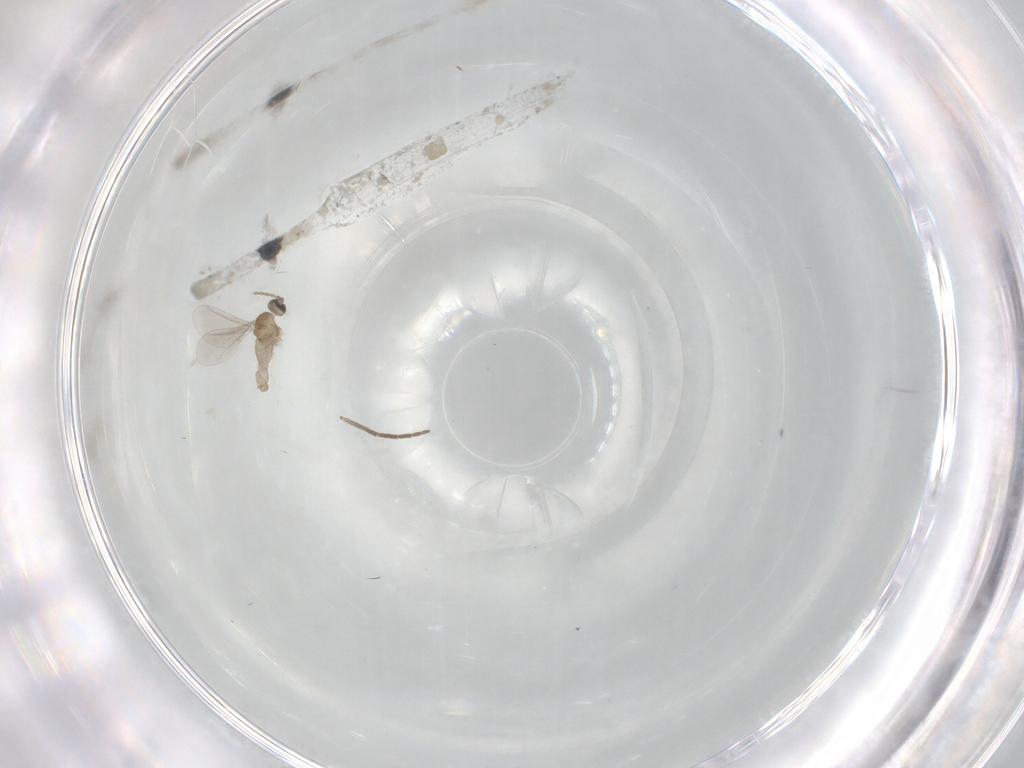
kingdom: Animalia
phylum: Arthropoda
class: Insecta
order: Diptera
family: Cecidomyiidae
